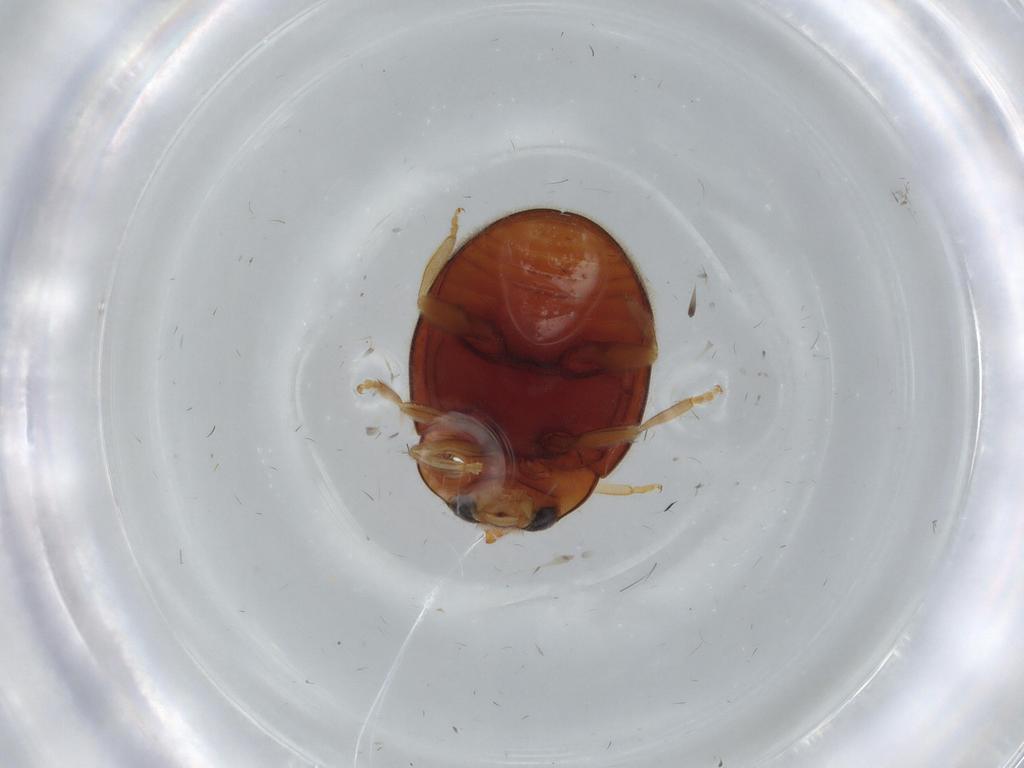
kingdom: Animalia
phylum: Arthropoda
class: Insecta
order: Coleoptera
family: Coccinellidae
